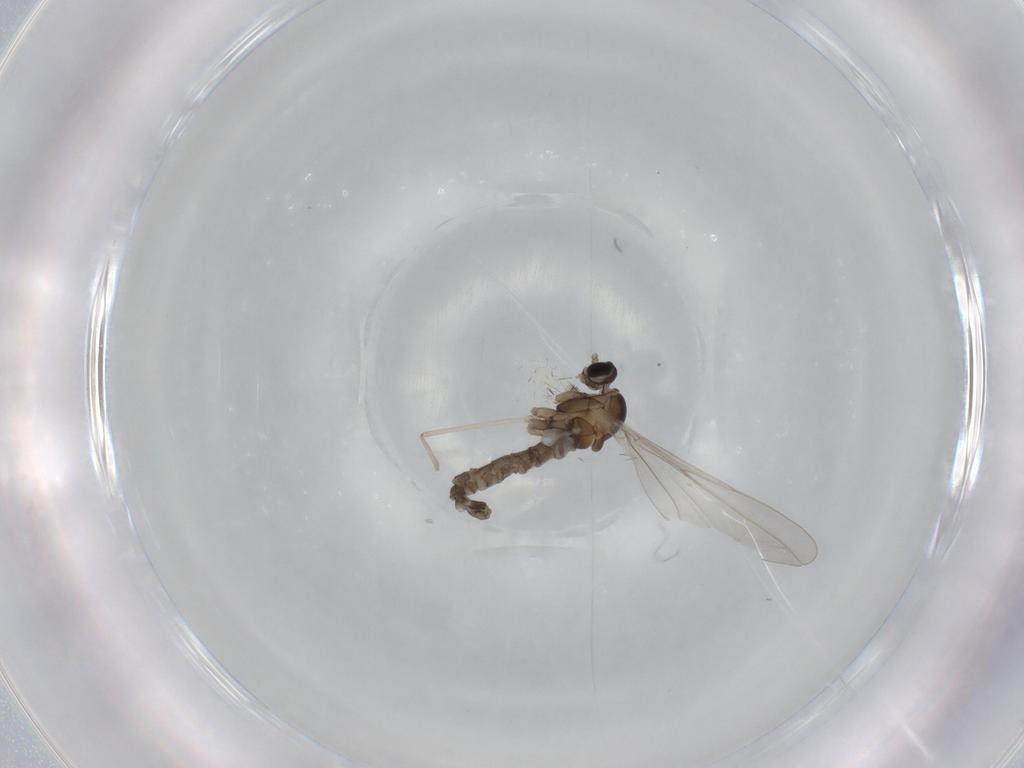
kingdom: Animalia
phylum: Arthropoda
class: Insecta
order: Diptera
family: Cecidomyiidae
